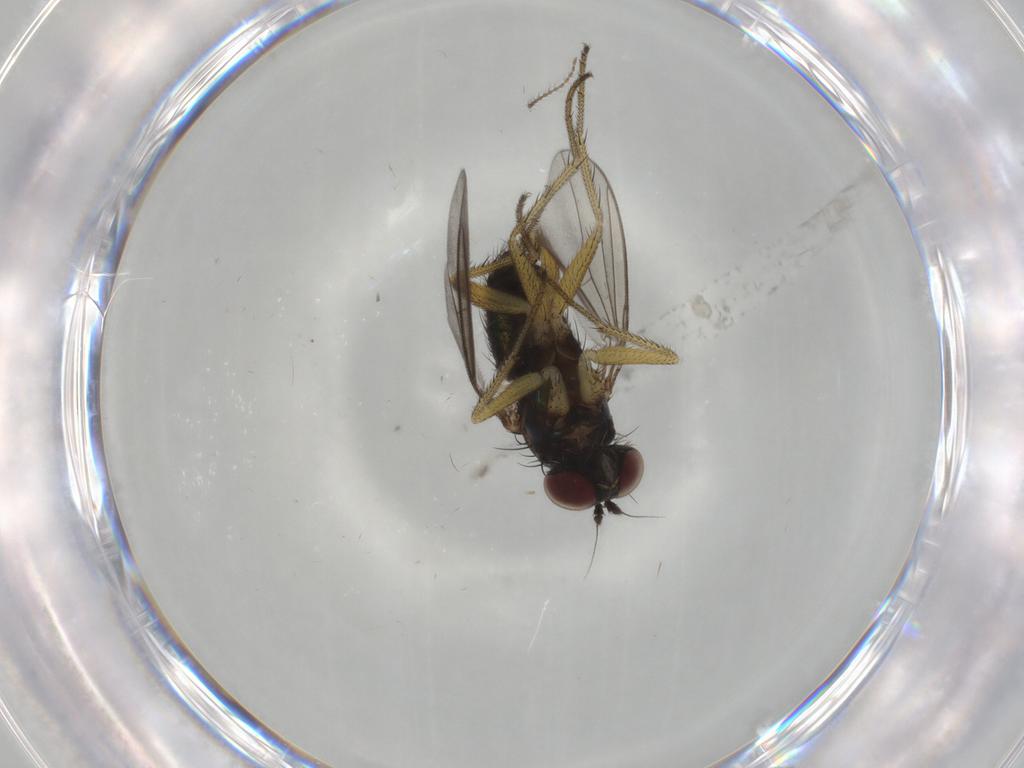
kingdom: Animalia
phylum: Arthropoda
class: Insecta
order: Diptera
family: Dolichopodidae
